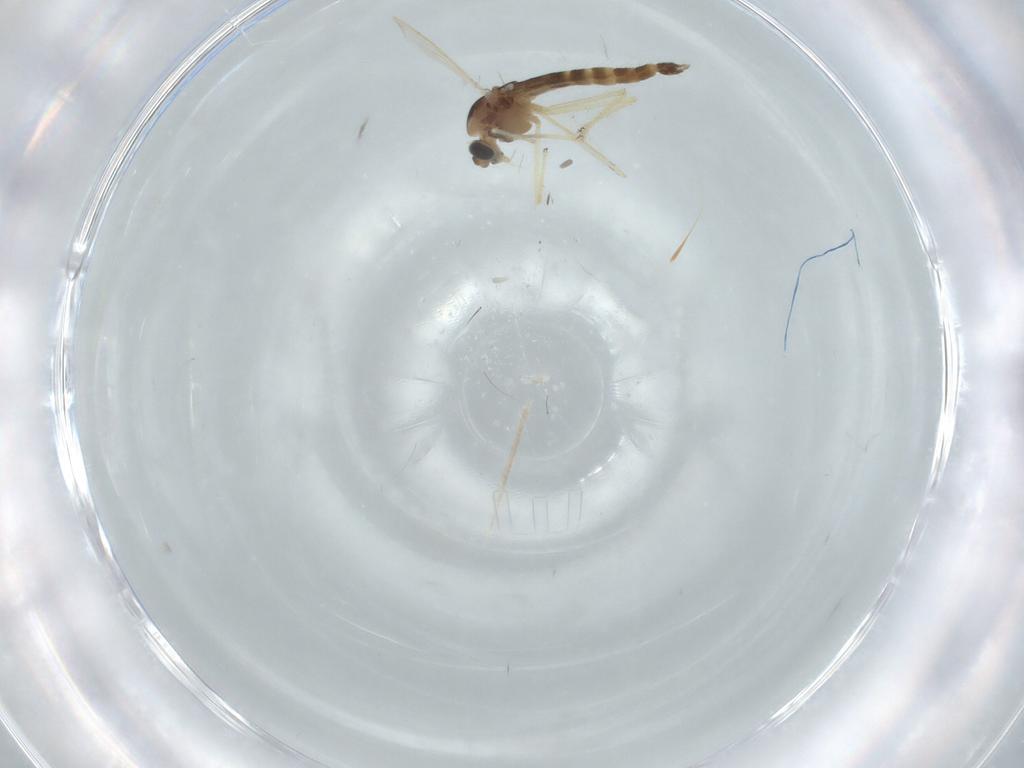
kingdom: Animalia
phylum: Arthropoda
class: Insecta
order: Diptera
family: Chironomidae
